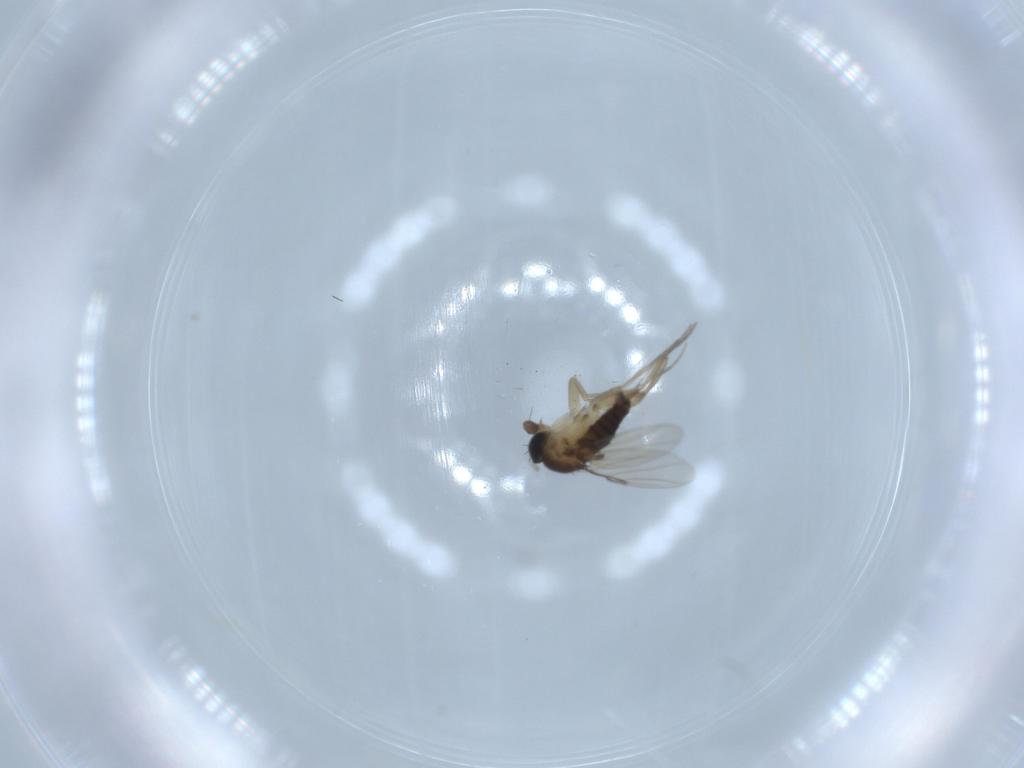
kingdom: Animalia
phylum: Arthropoda
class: Insecta
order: Diptera
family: Phoridae
